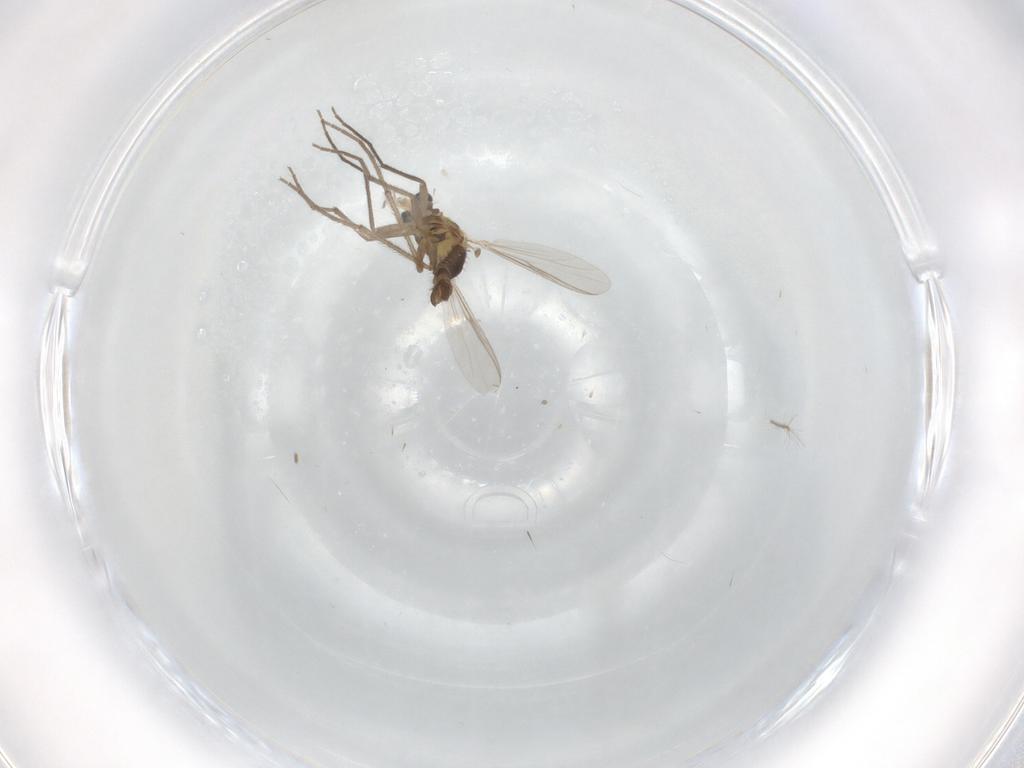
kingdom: Animalia
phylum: Arthropoda
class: Insecta
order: Diptera
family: Chironomidae
